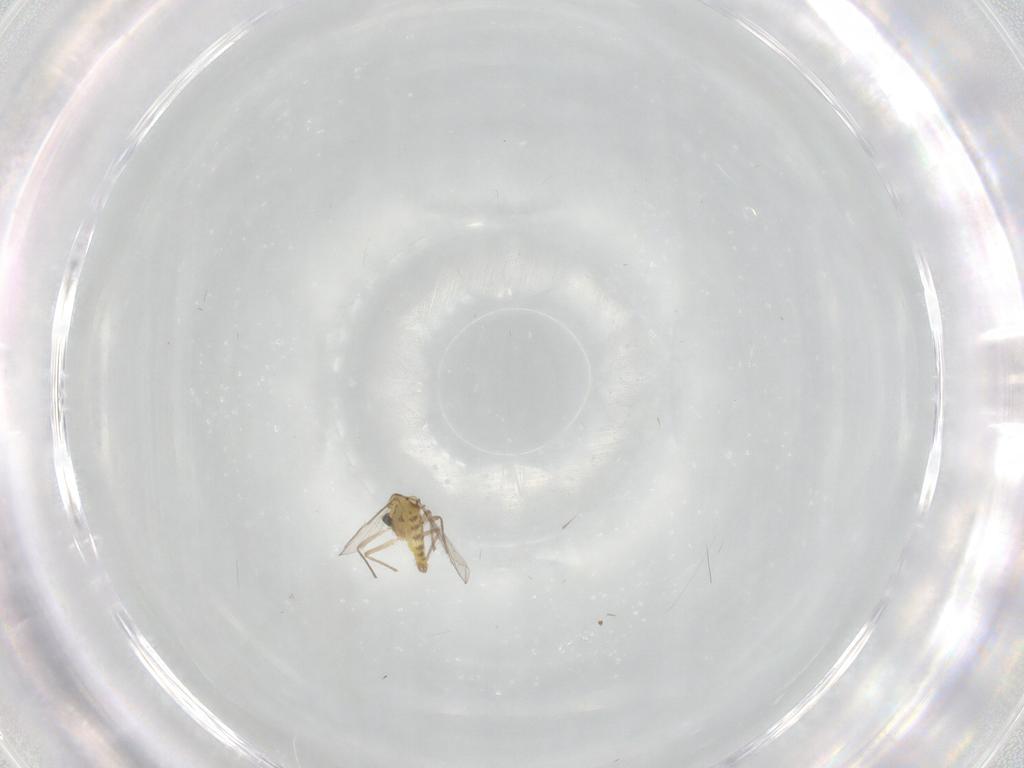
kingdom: Animalia
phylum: Arthropoda
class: Insecta
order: Diptera
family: Chironomidae
